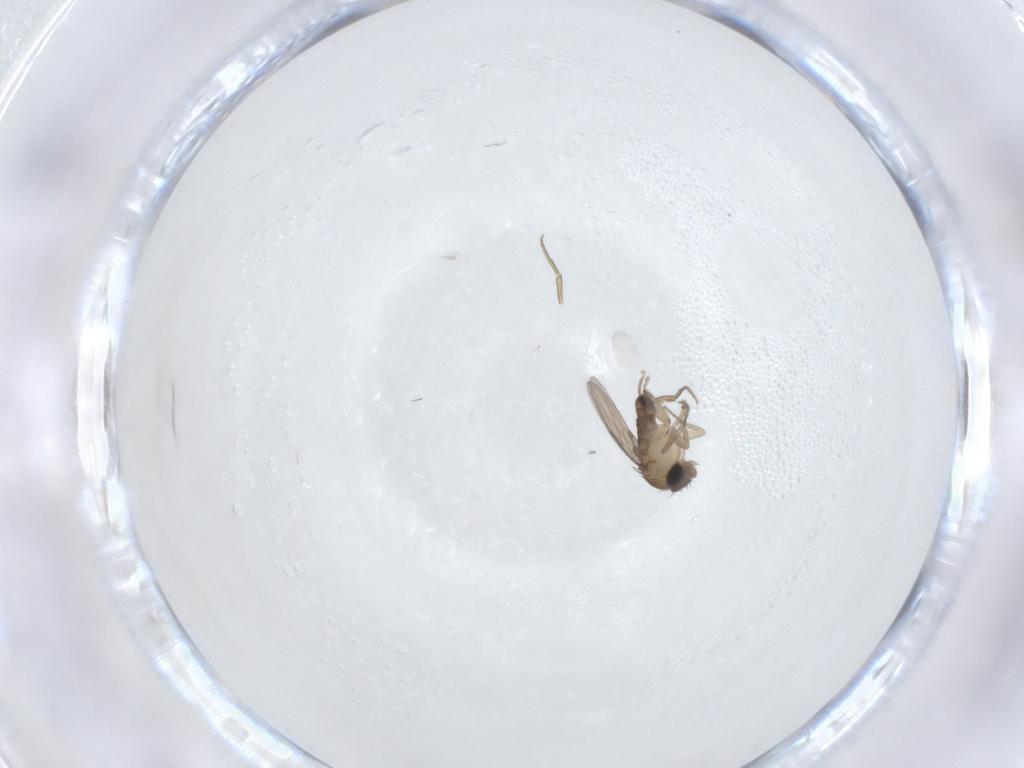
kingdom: Animalia
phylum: Arthropoda
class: Insecta
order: Diptera
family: Phoridae
